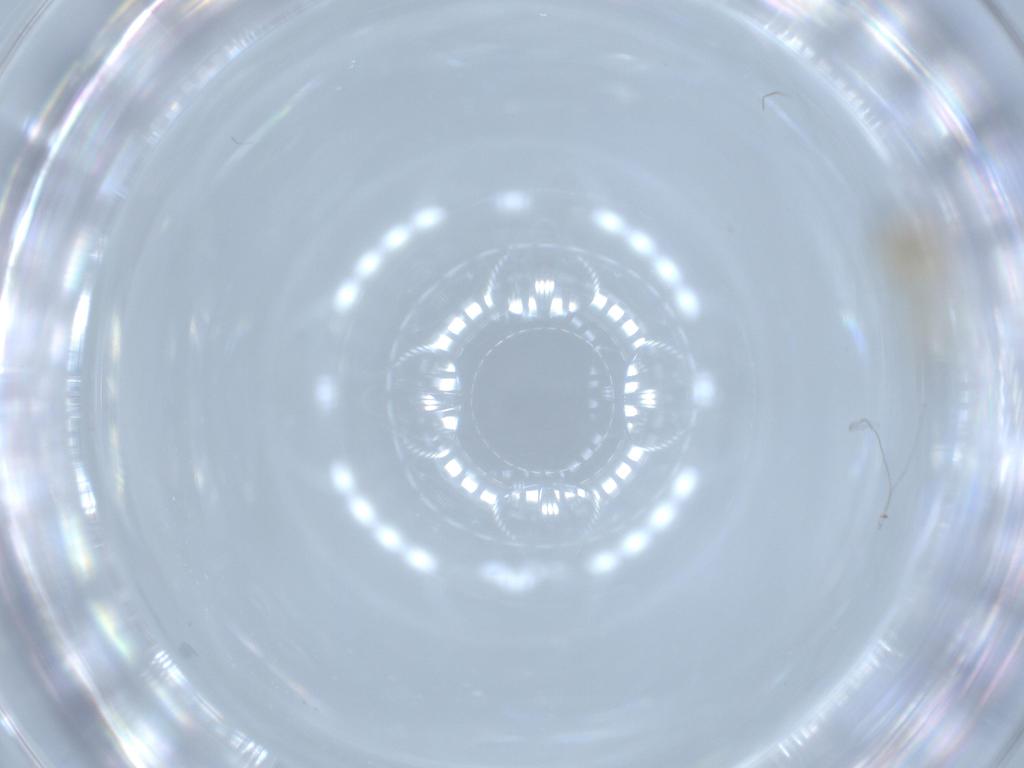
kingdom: Animalia
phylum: Arthropoda
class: Insecta
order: Diptera
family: Ceratopogonidae
